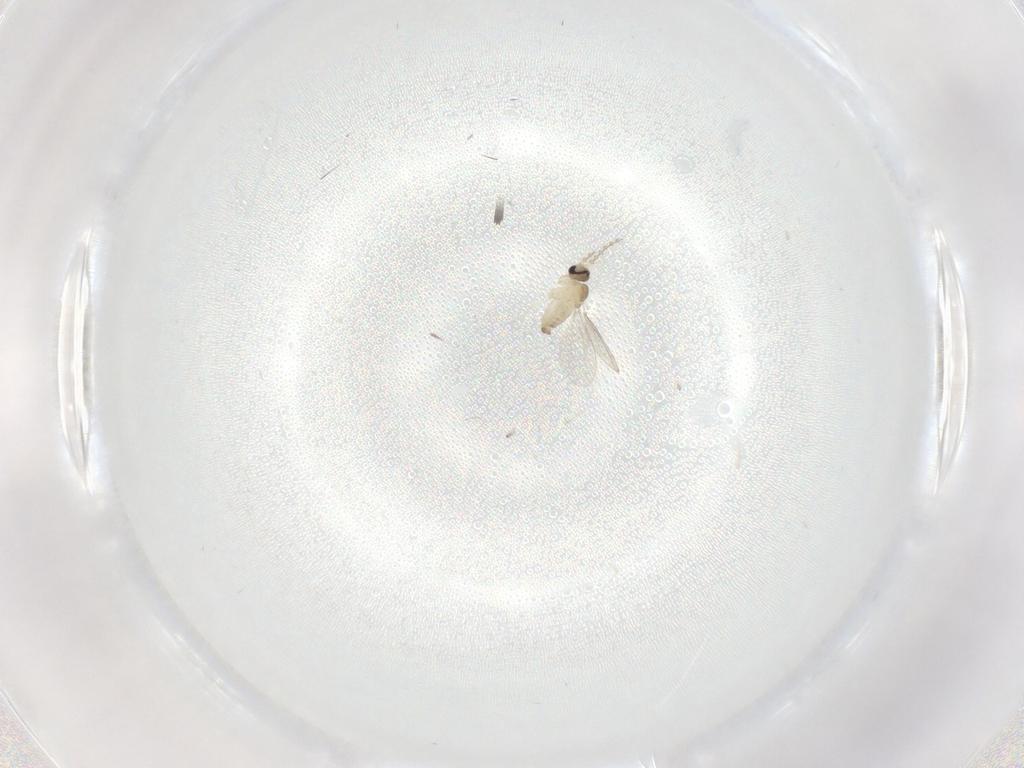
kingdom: Animalia
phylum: Arthropoda
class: Insecta
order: Diptera
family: Cecidomyiidae
